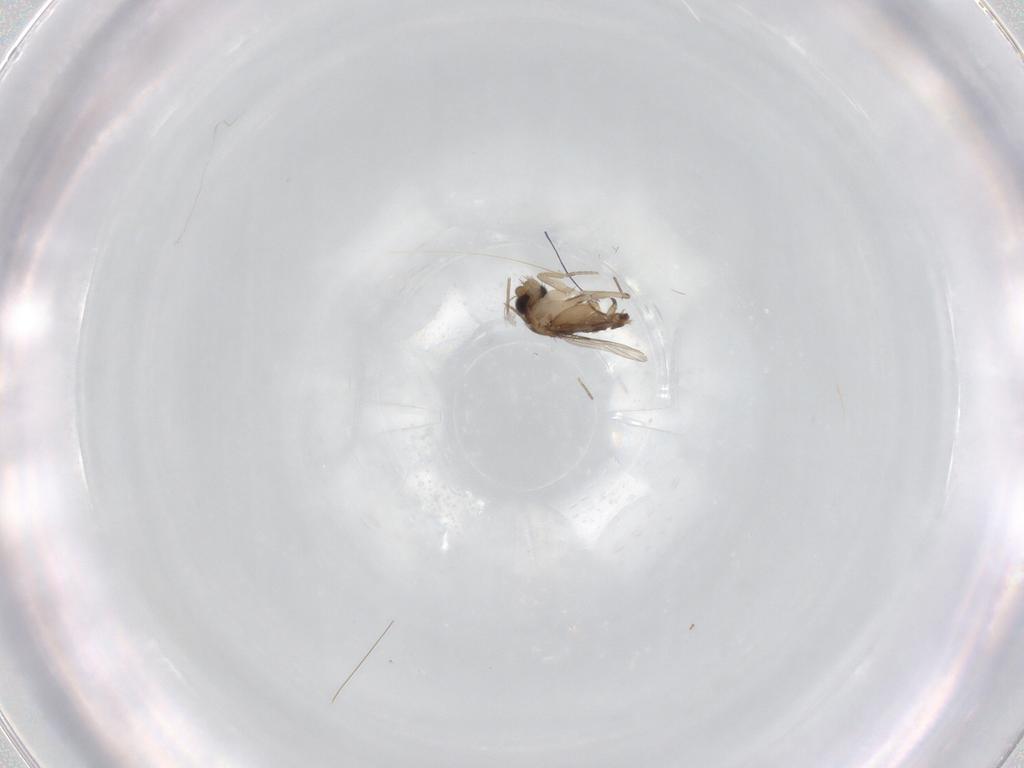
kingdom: Animalia
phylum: Arthropoda
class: Insecta
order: Diptera
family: Phoridae
